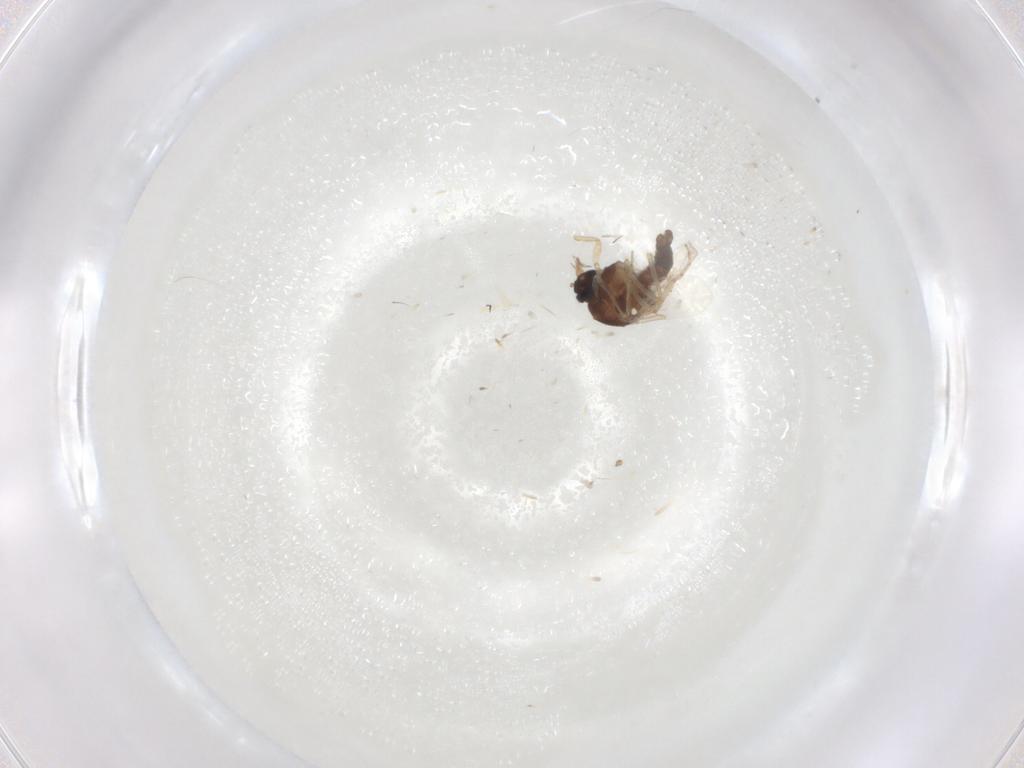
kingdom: Animalia
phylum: Arthropoda
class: Insecta
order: Diptera
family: Ceratopogonidae
